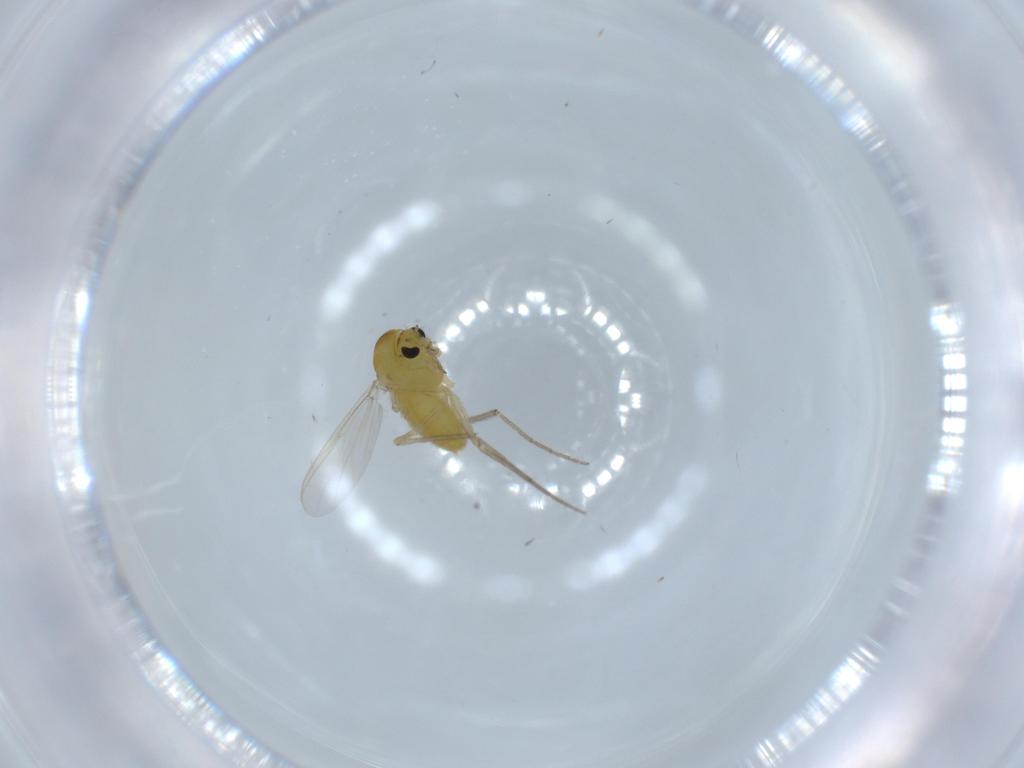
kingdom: Animalia
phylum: Arthropoda
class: Insecta
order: Diptera
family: Chironomidae
